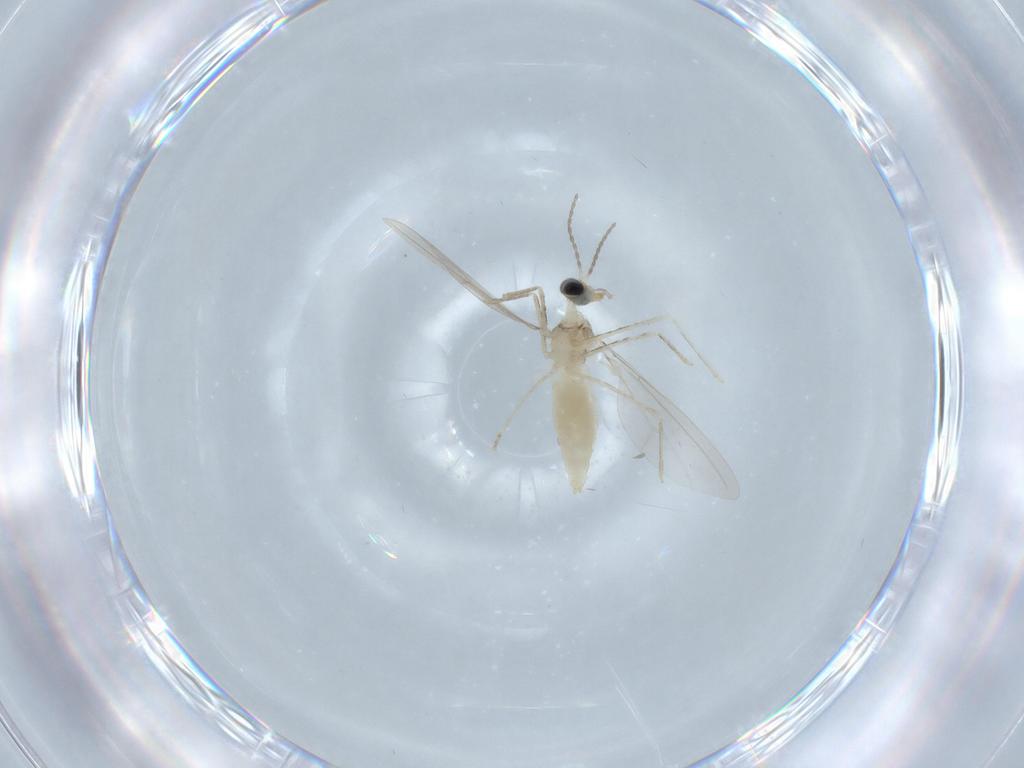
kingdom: Animalia
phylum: Arthropoda
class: Insecta
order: Diptera
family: Cecidomyiidae
